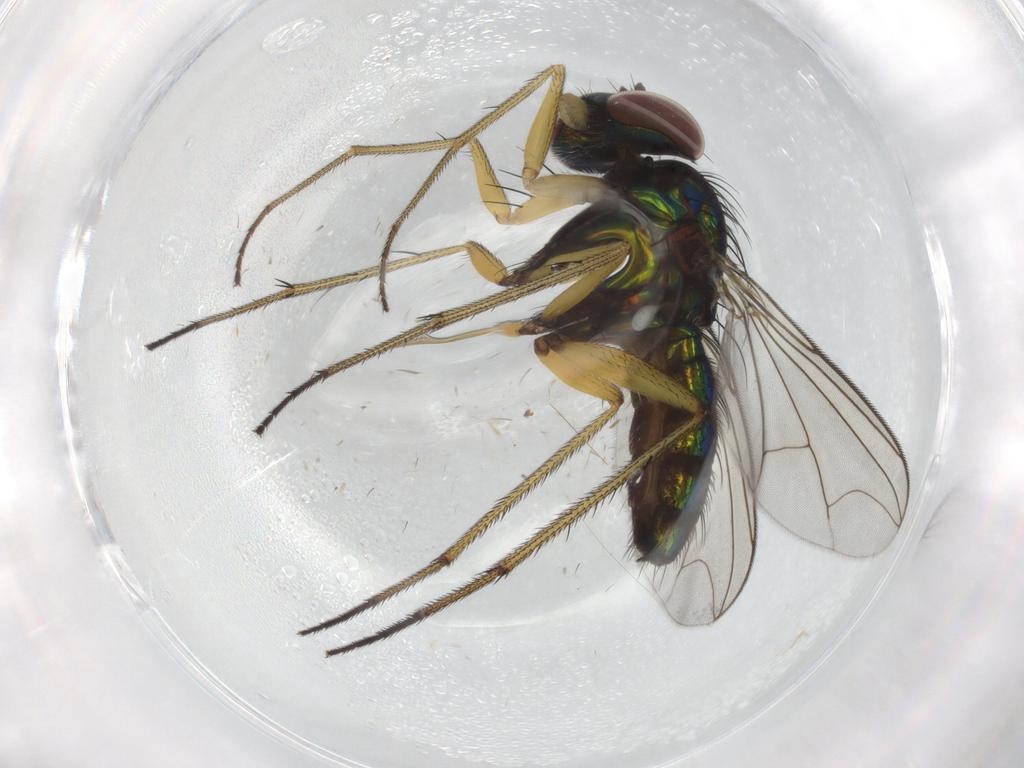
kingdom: Animalia
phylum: Arthropoda
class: Insecta
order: Diptera
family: Dolichopodidae
